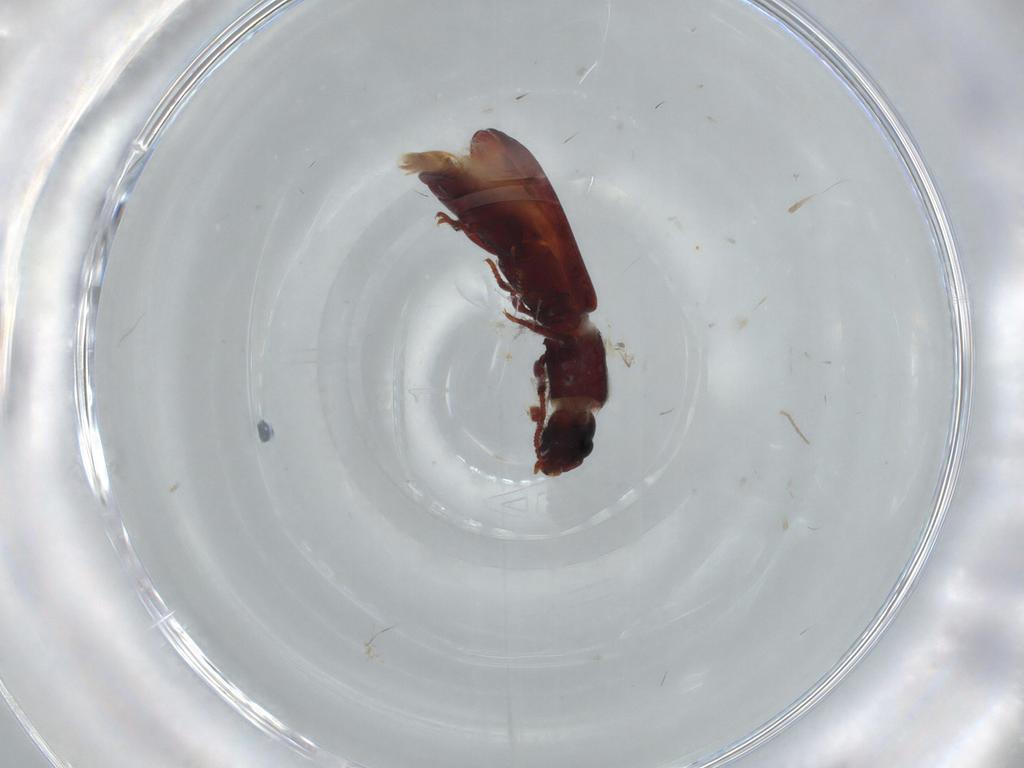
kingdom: Animalia
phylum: Arthropoda
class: Insecta
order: Coleoptera
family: Zopheridae
